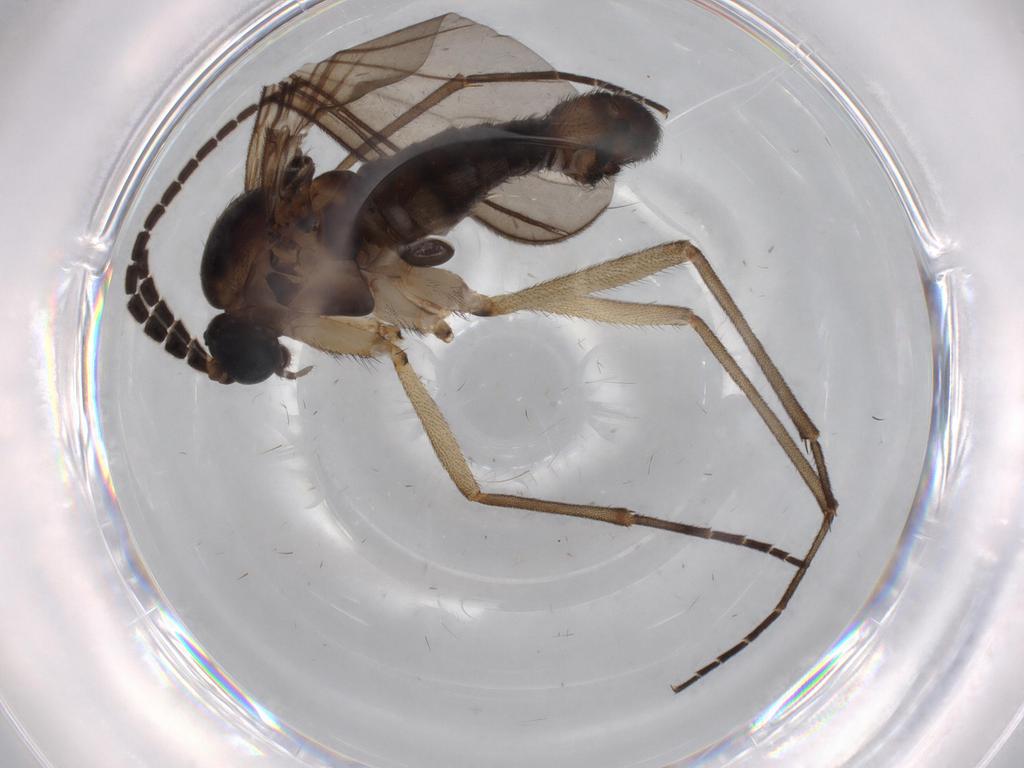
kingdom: Animalia
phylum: Arthropoda
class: Insecta
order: Diptera
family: Sciaridae
